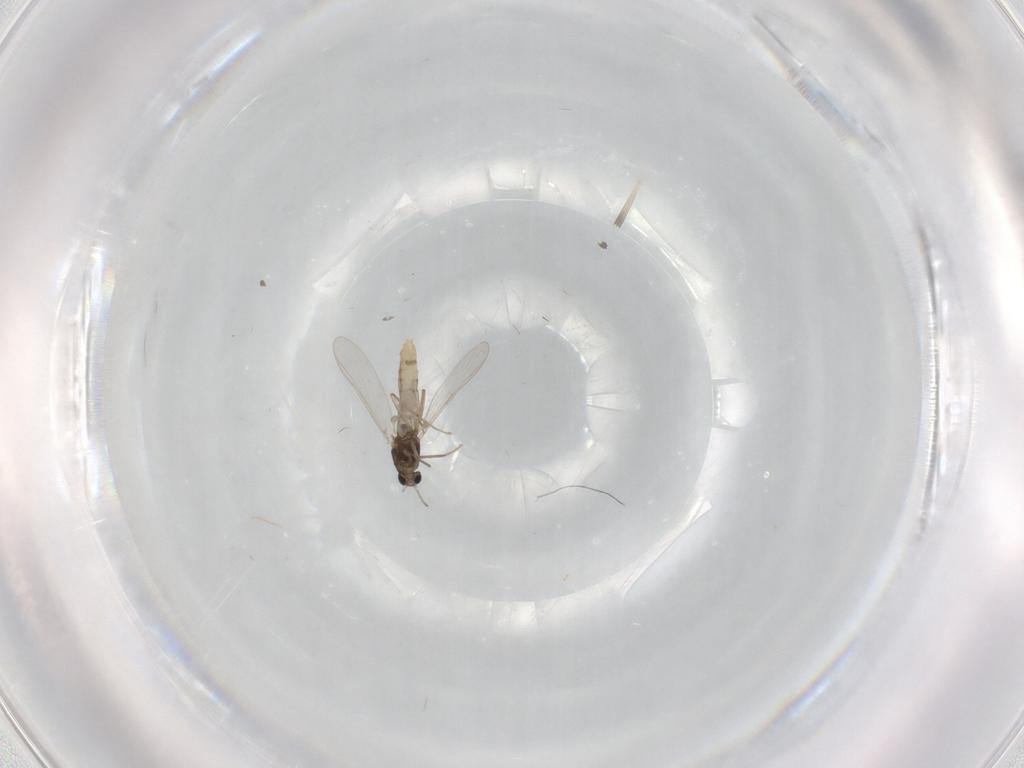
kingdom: Animalia
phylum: Arthropoda
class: Insecta
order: Diptera
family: Chironomidae
